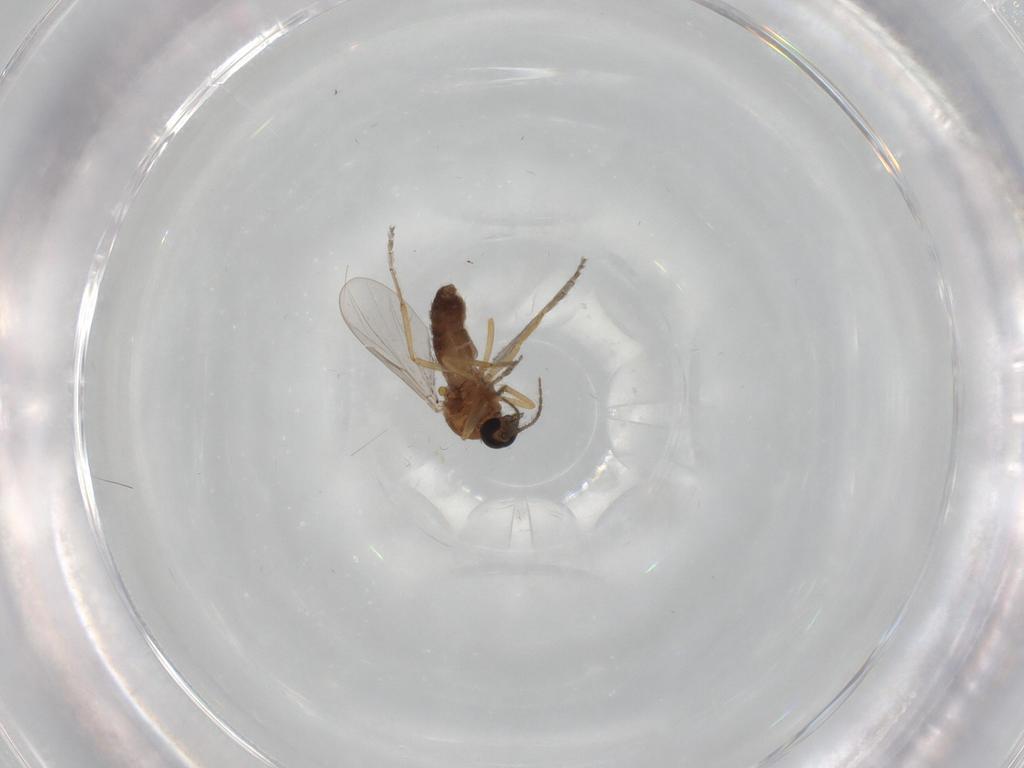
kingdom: Animalia
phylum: Arthropoda
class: Insecta
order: Diptera
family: Ceratopogonidae
